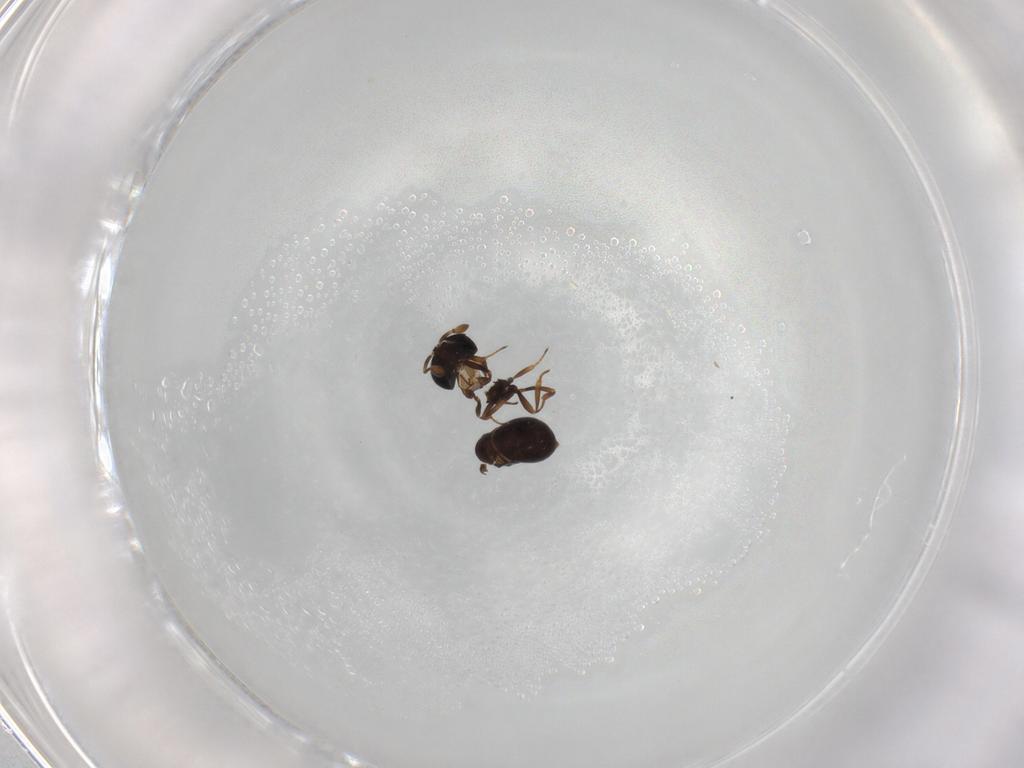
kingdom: Animalia
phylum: Arthropoda
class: Insecta
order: Hymenoptera
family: Scelionidae
